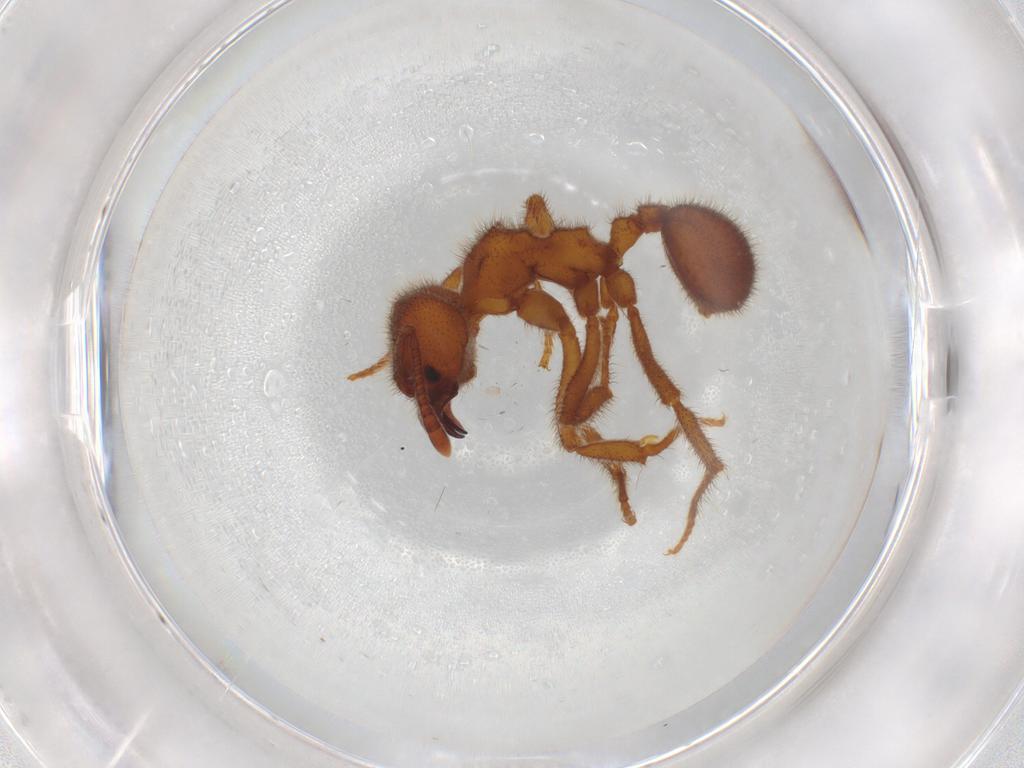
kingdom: Animalia
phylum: Arthropoda
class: Insecta
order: Hymenoptera
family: Formicidae
